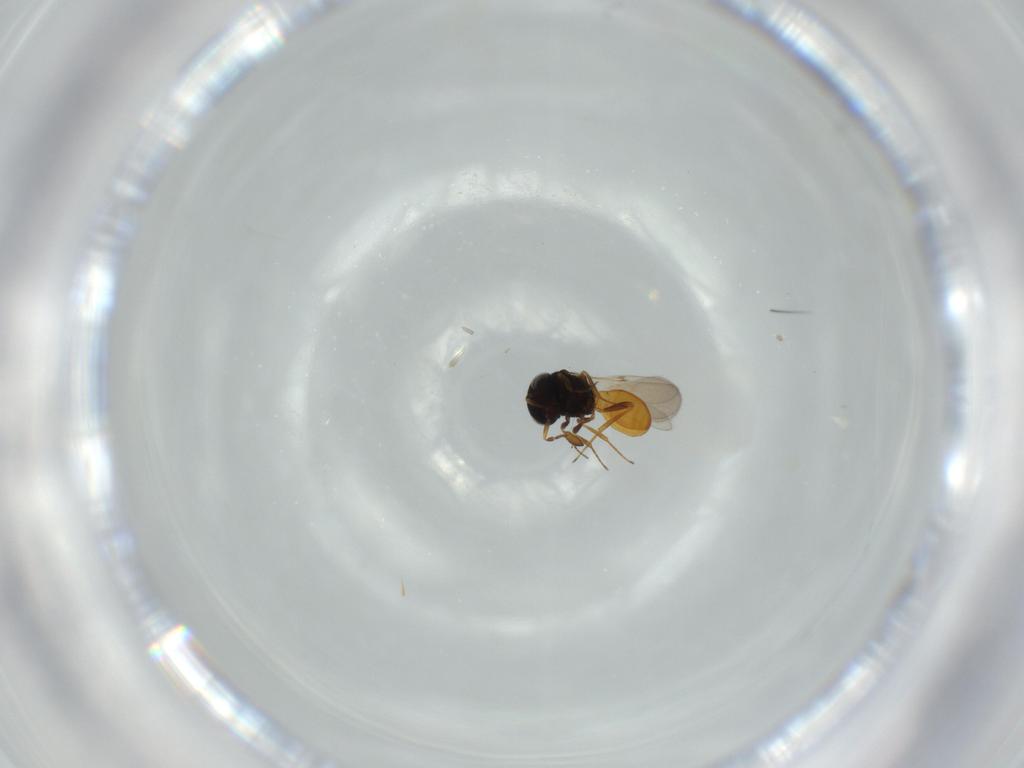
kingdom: Animalia
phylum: Arthropoda
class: Insecta
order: Hymenoptera
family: Scelionidae
